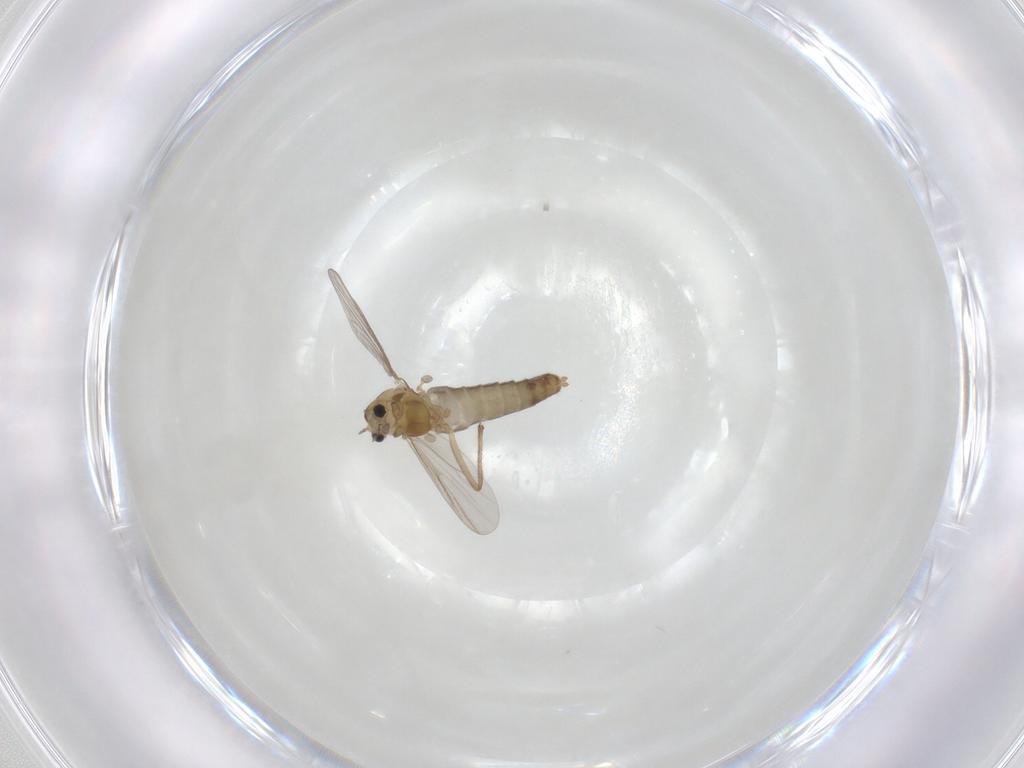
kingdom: Animalia
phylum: Arthropoda
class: Insecta
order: Diptera
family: Chironomidae
